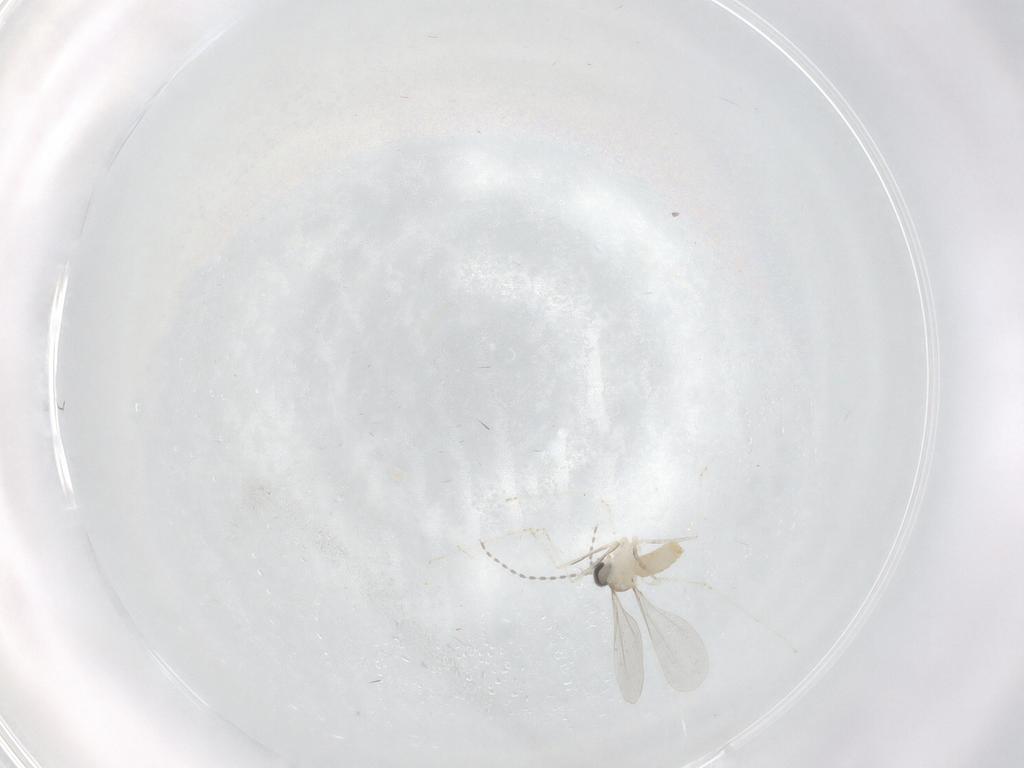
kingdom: Animalia
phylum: Arthropoda
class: Insecta
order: Diptera
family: Cecidomyiidae
